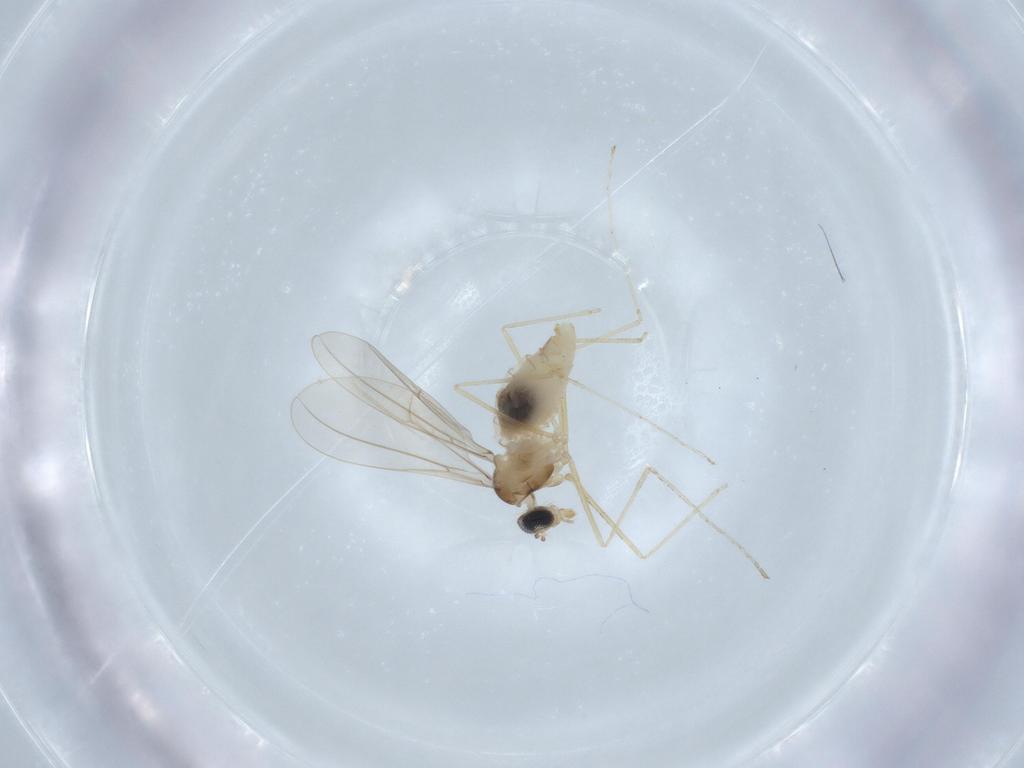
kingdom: Animalia
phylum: Arthropoda
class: Insecta
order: Diptera
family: Cecidomyiidae
